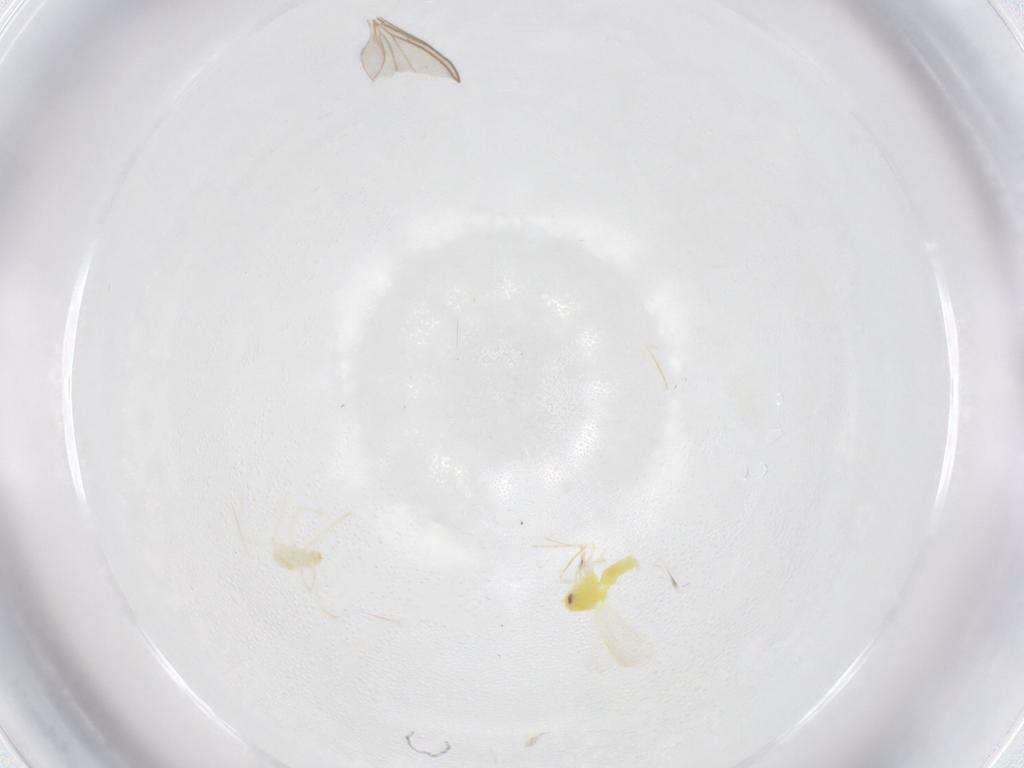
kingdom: Animalia
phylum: Arthropoda
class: Arachnida
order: Trombidiformes
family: Erythraeidae
